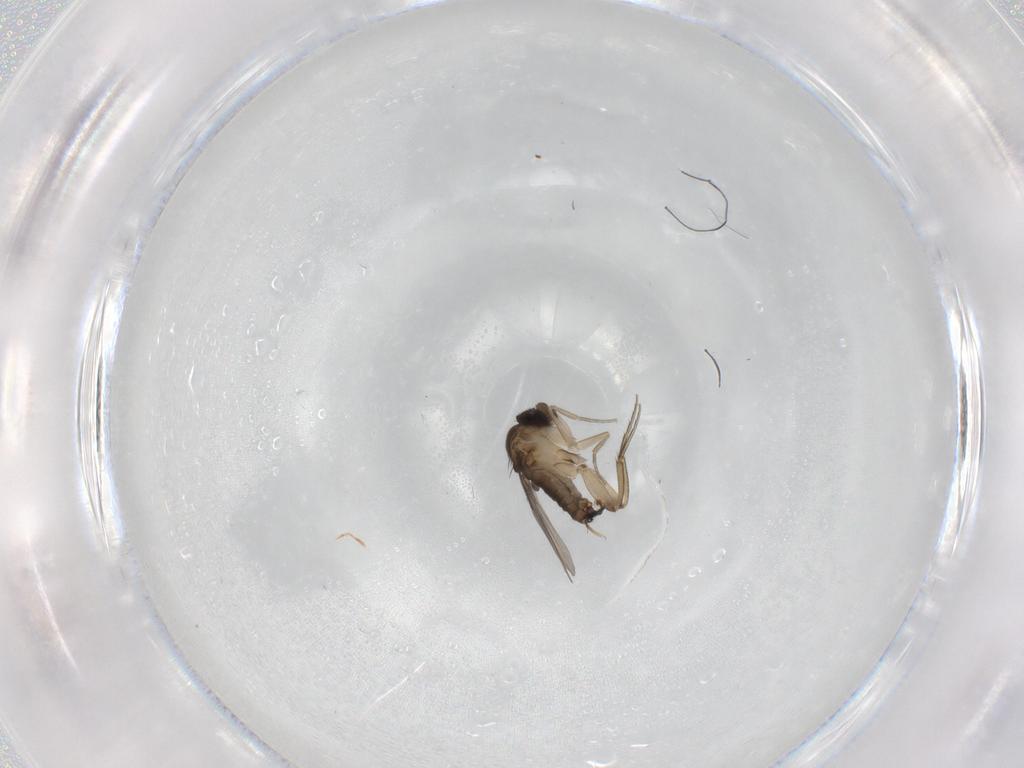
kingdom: Animalia
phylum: Arthropoda
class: Insecta
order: Diptera
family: Phoridae
